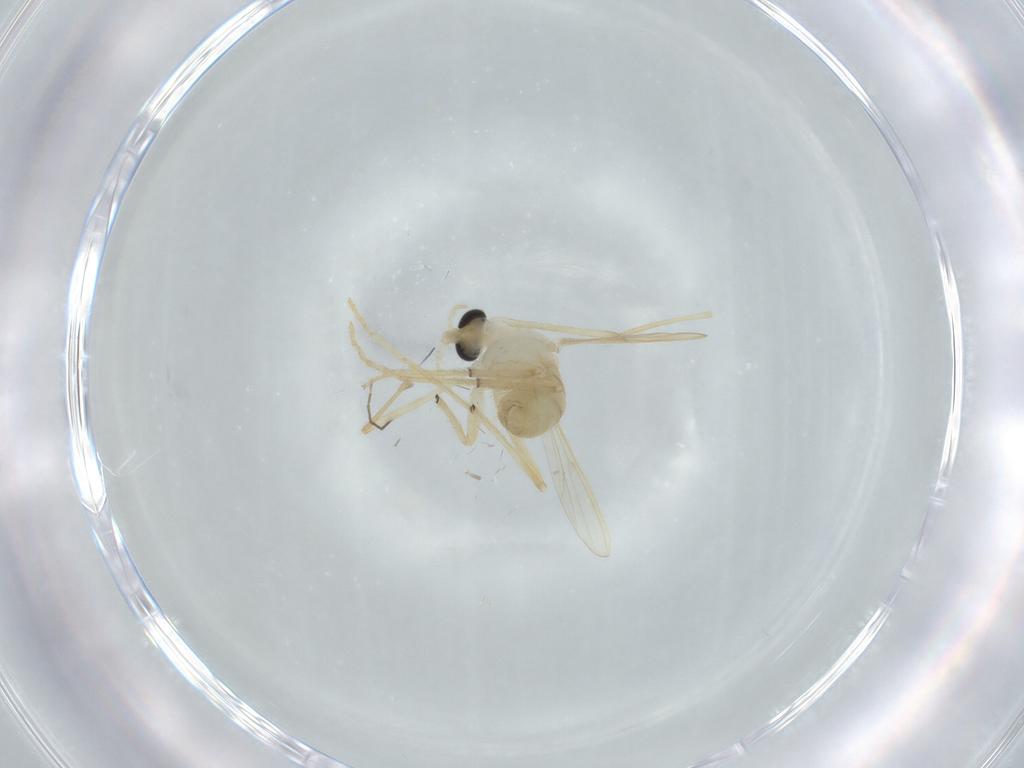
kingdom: Animalia
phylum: Arthropoda
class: Insecta
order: Diptera
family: Chironomidae
